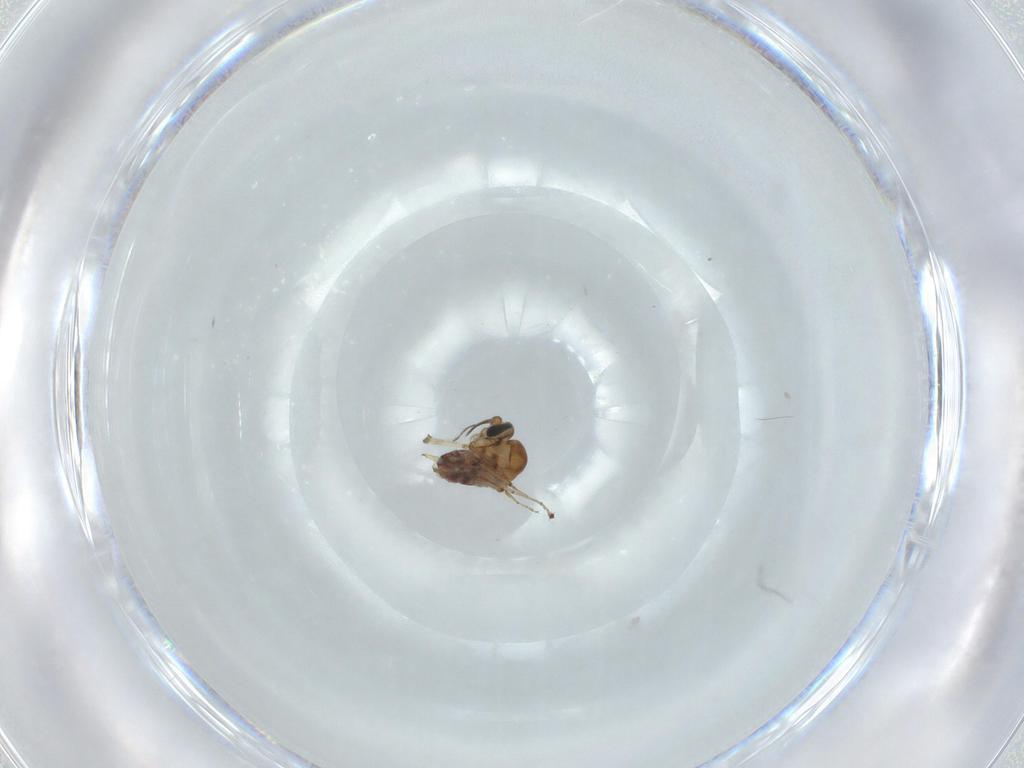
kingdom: Animalia
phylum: Arthropoda
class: Insecta
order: Diptera
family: Ceratopogonidae
